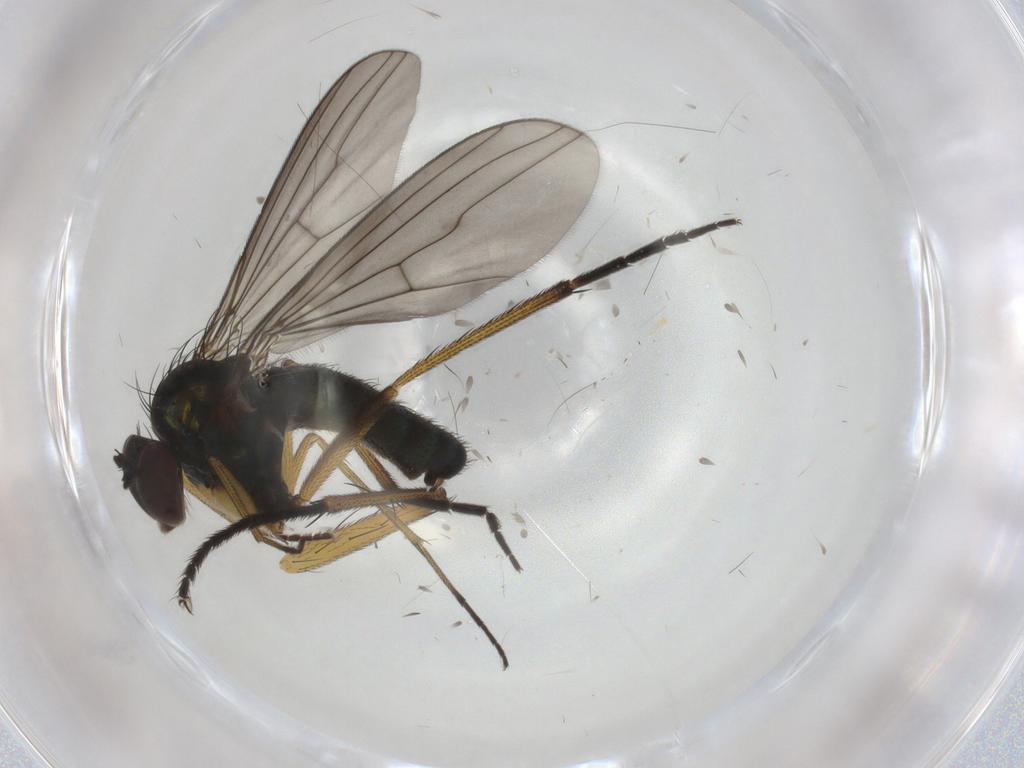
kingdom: Animalia
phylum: Arthropoda
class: Insecta
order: Diptera
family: Dolichopodidae
